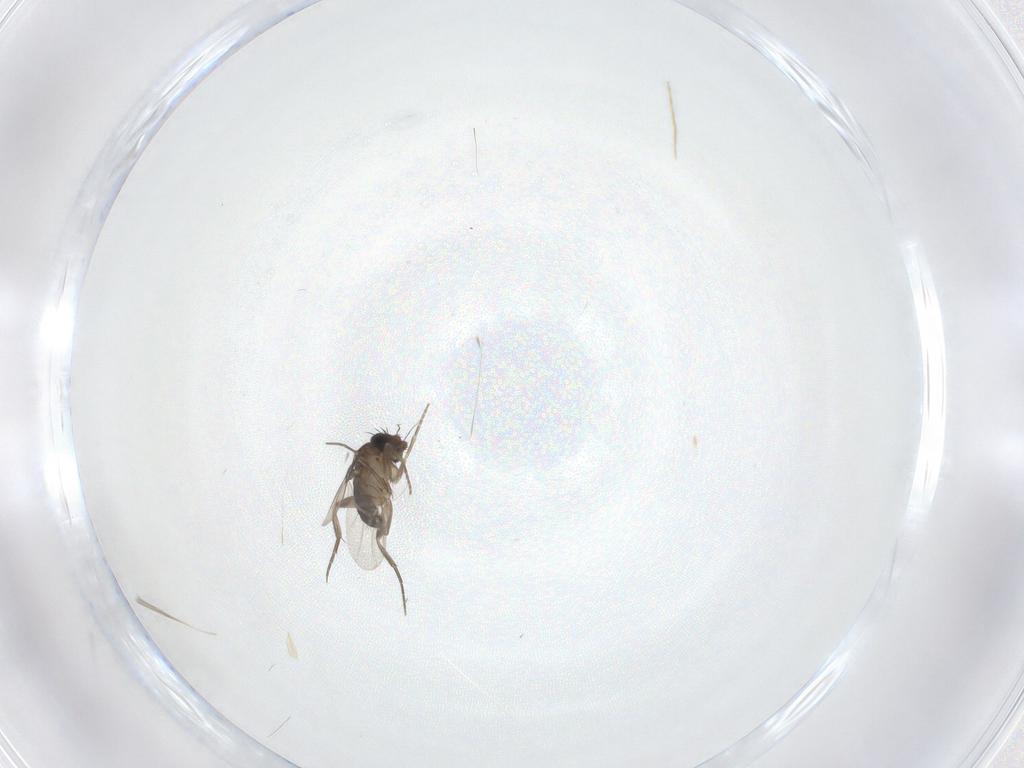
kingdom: Animalia
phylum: Arthropoda
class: Insecta
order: Diptera
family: Phoridae
